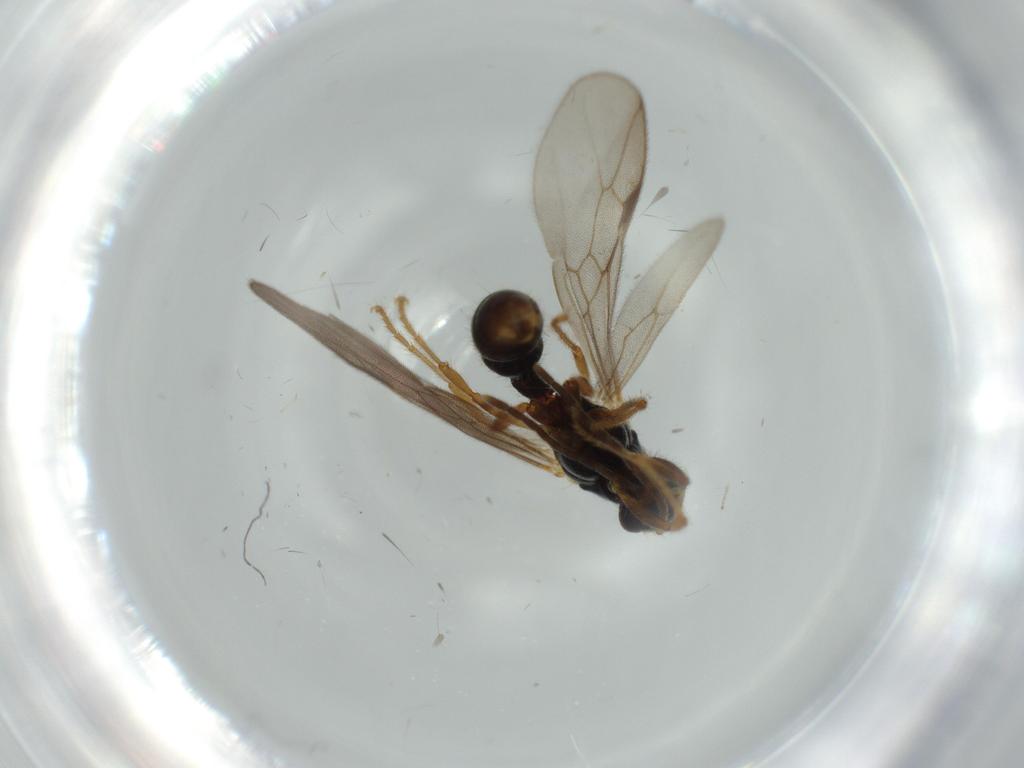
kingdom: Animalia
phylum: Arthropoda
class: Insecta
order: Hymenoptera
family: Formicidae
